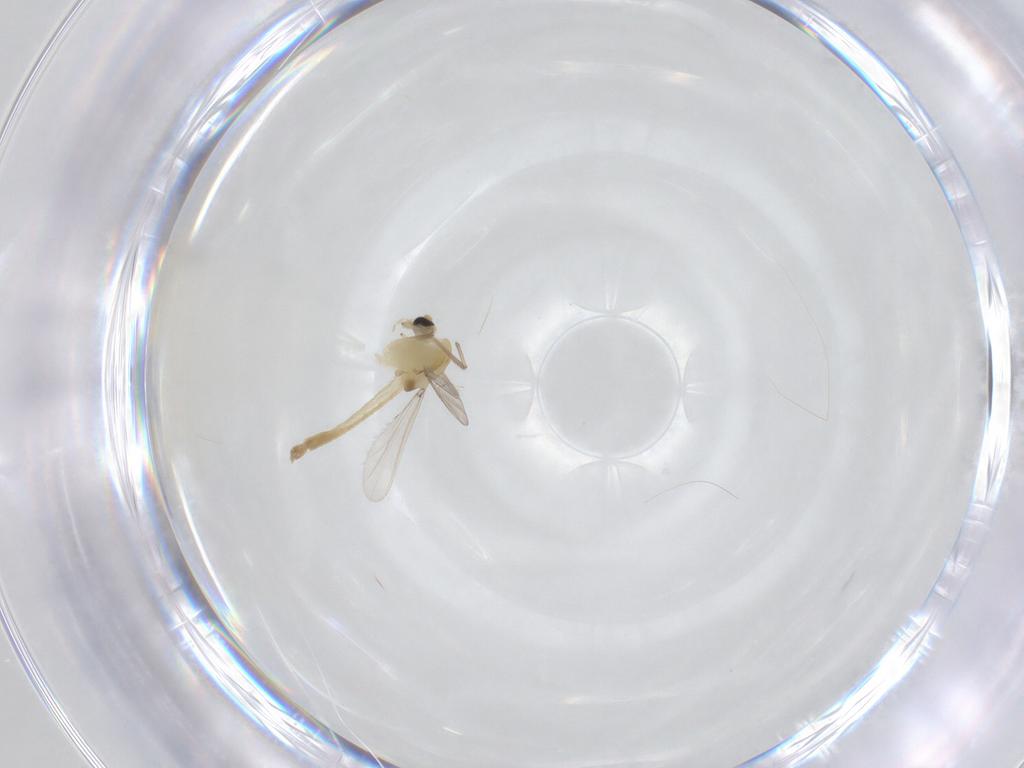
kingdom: Animalia
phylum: Arthropoda
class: Insecta
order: Diptera
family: Chironomidae
